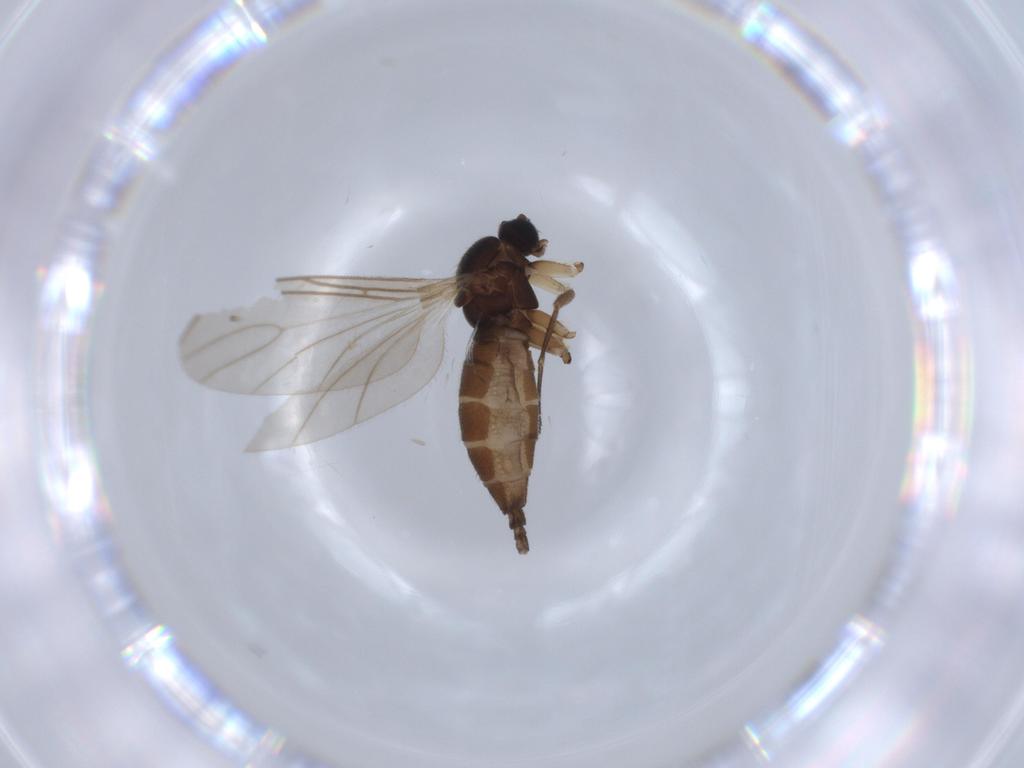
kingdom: Animalia
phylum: Arthropoda
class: Insecta
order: Diptera
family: Sciaridae
